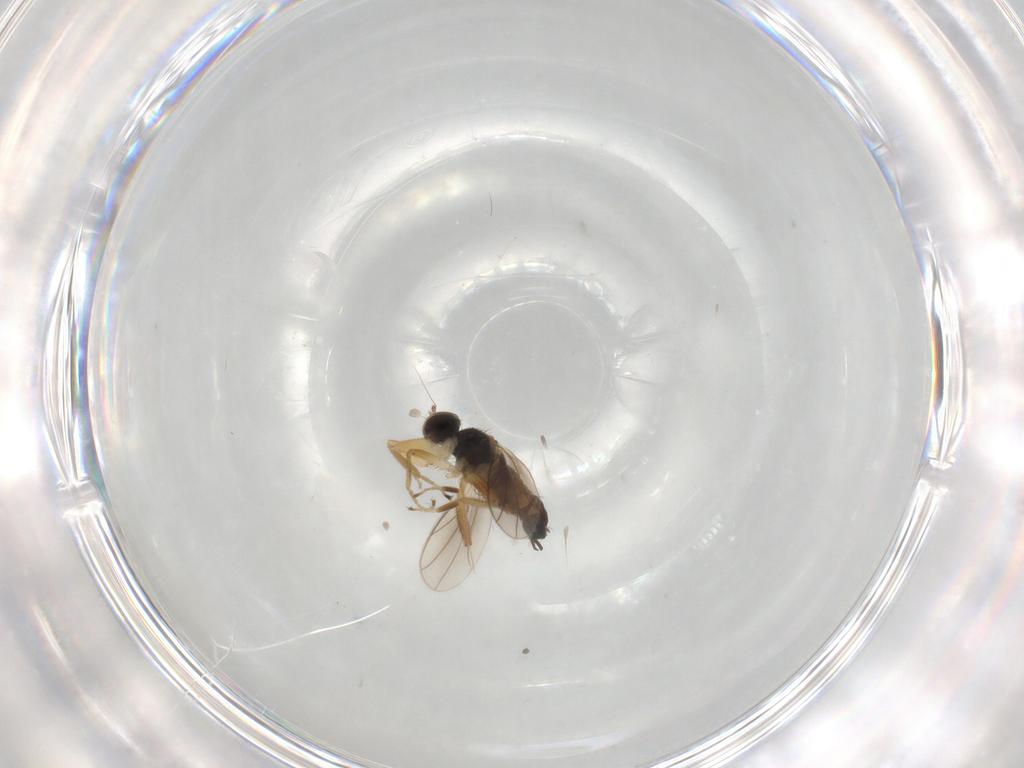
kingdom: Animalia
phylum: Arthropoda
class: Insecta
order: Diptera
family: Hybotidae
